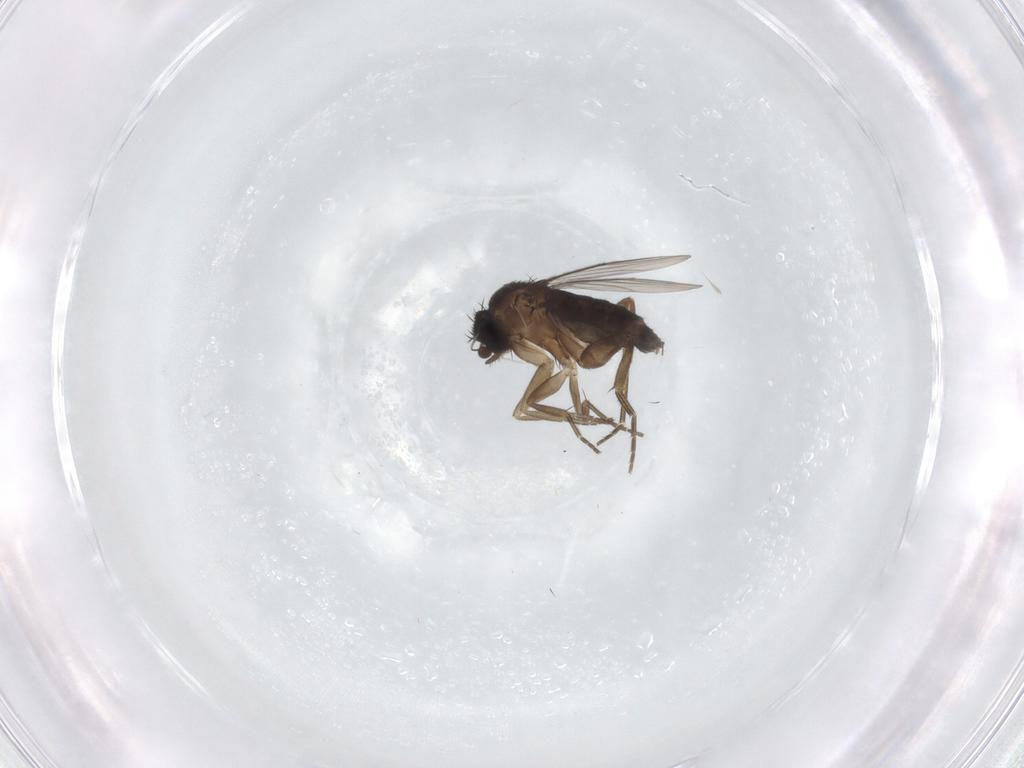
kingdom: Animalia
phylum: Arthropoda
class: Insecta
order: Diptera
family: Phoridae
